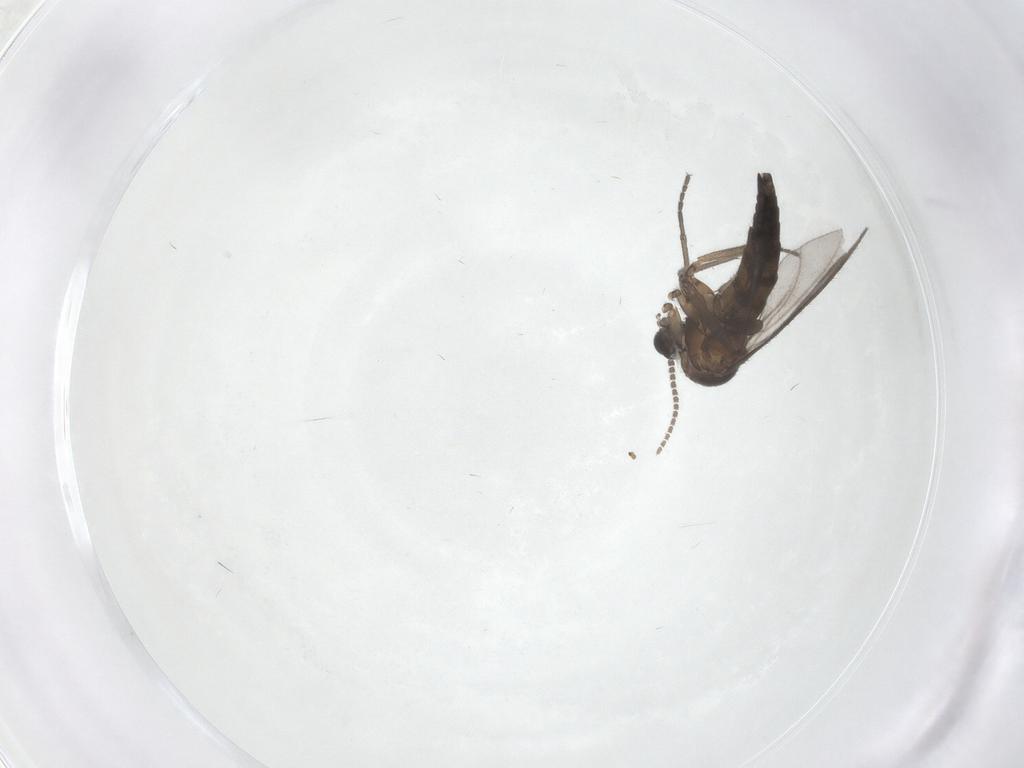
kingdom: Animalia
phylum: Arthropoda
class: Insecta
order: Diptera
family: Sciaridae
